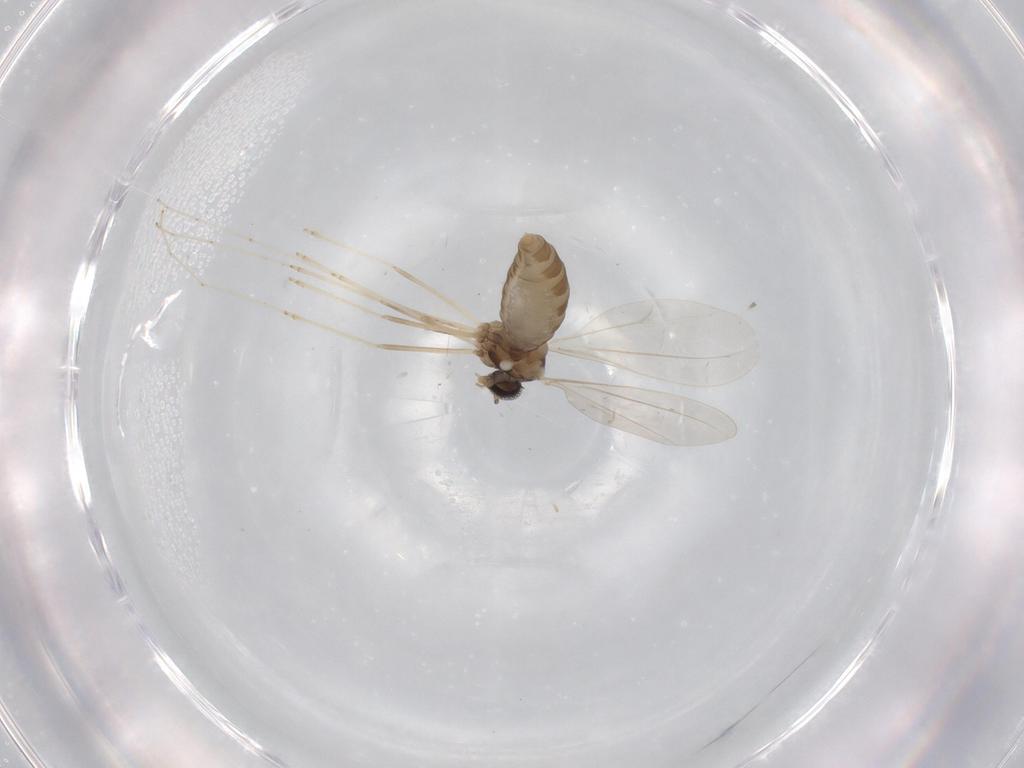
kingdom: Animalia
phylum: Arthropoda
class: Insecta
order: Diptera
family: Cecidomyiidae
